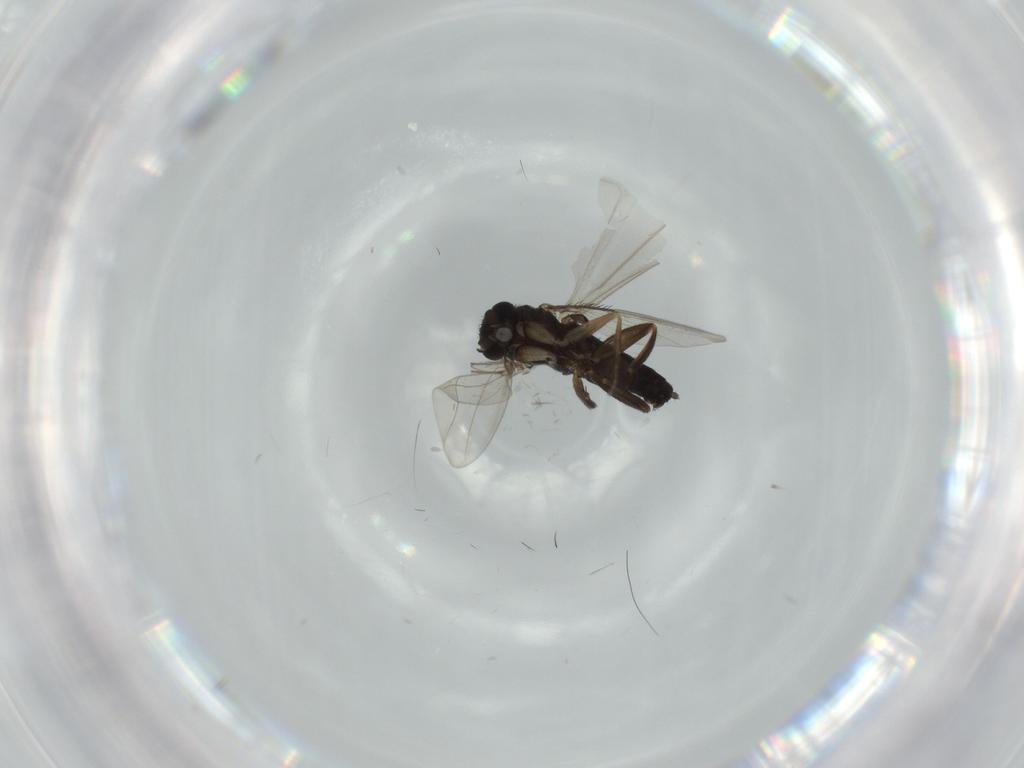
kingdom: Animalia
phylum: Arthropoda
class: Insecta
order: Diptera
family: Phoridae
